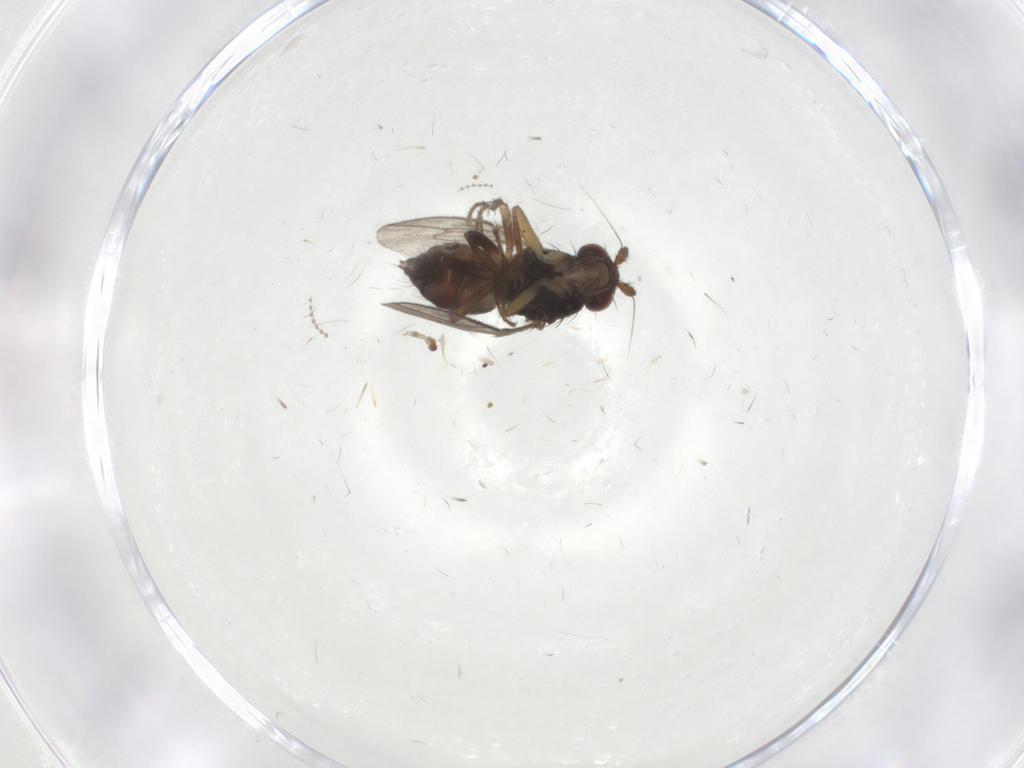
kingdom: Animalia
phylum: Arthropoda
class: Insecta
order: Diptera
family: Sphaeroceridae
